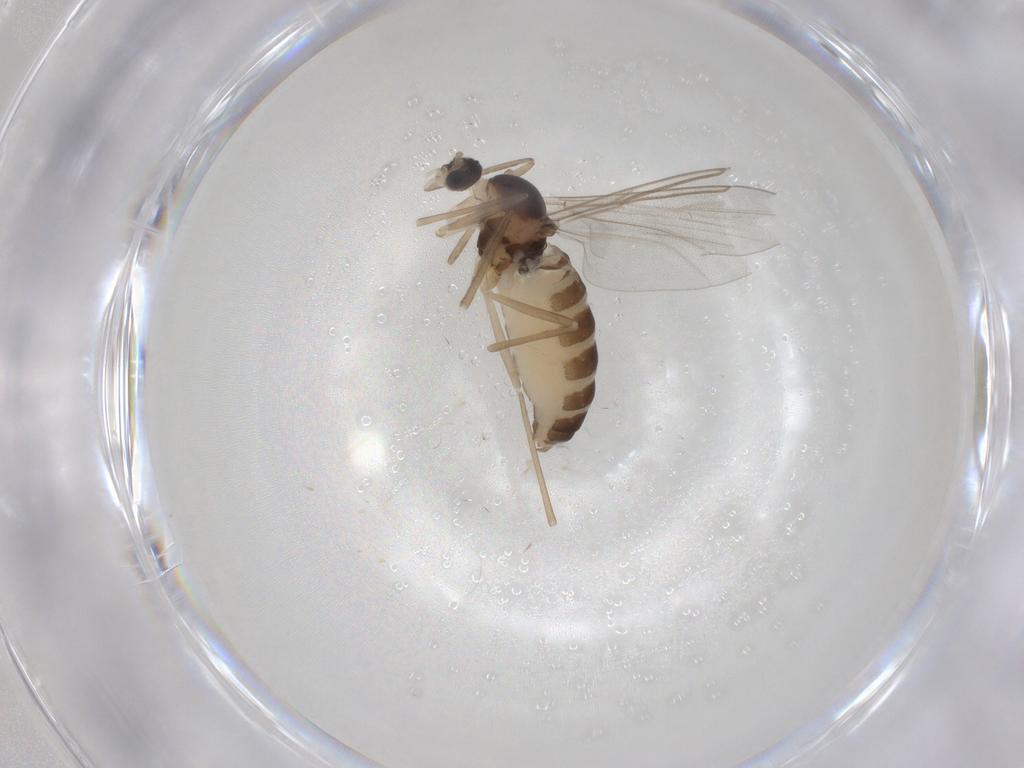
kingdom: Animalia
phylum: Arthropoda
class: Insecta
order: Diptera
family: Cecidomyiidae
